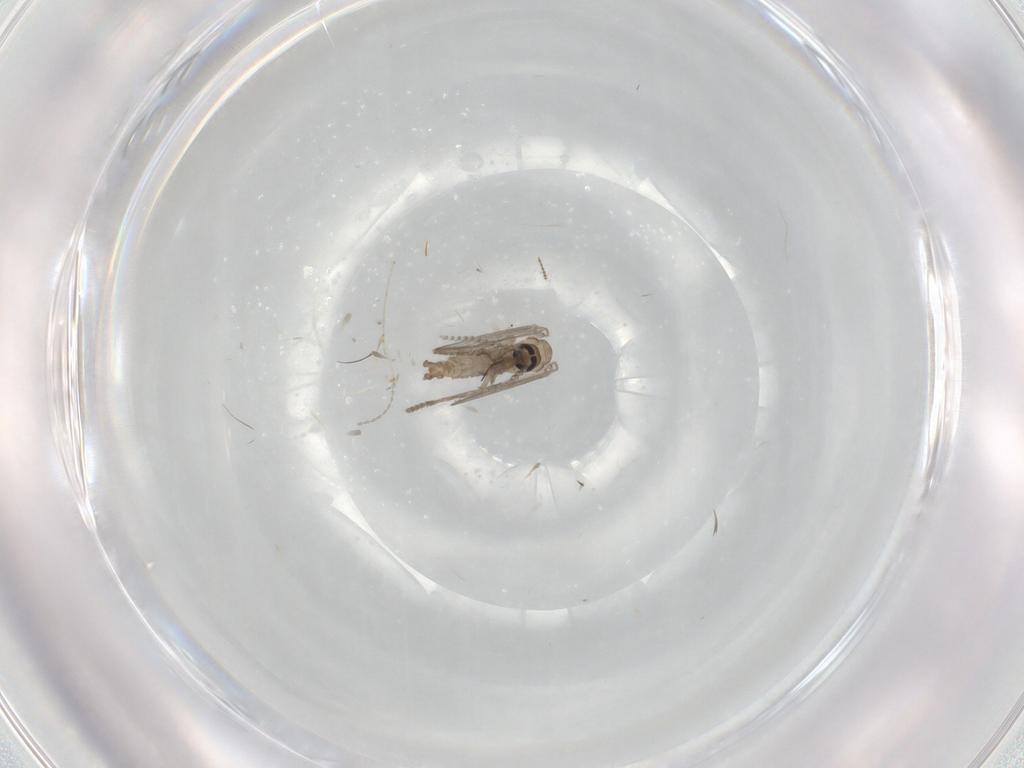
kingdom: Animalia
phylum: Arthropoda
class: Insecta
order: Diptera
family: Psychodidae
